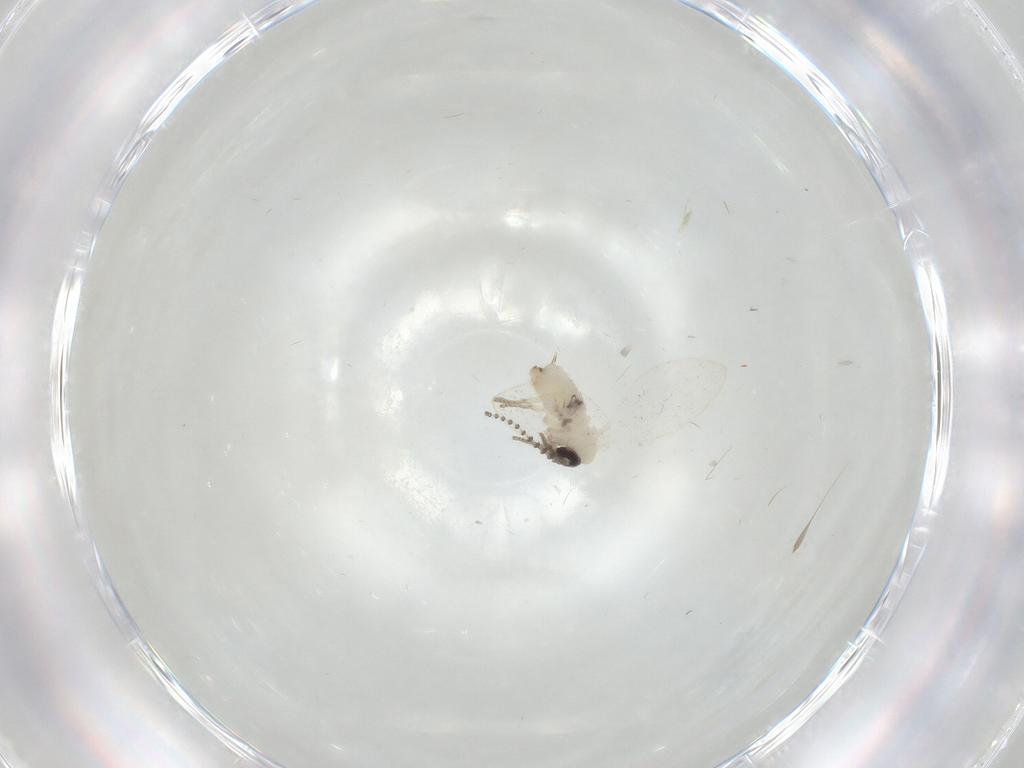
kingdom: Animalia
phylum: Arthropoda
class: Insecta
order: Diptera
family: Psychodidae
